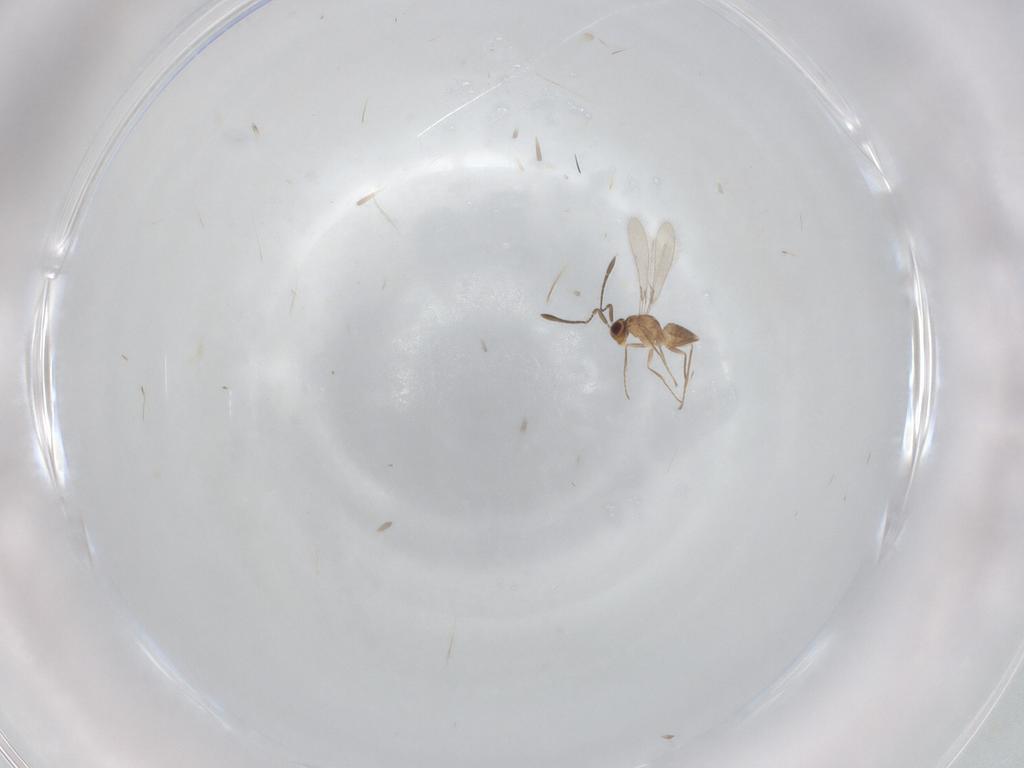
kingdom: Animalia
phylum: Arthropoda
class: Insecta
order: Hymenoptera
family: Mymaridae
